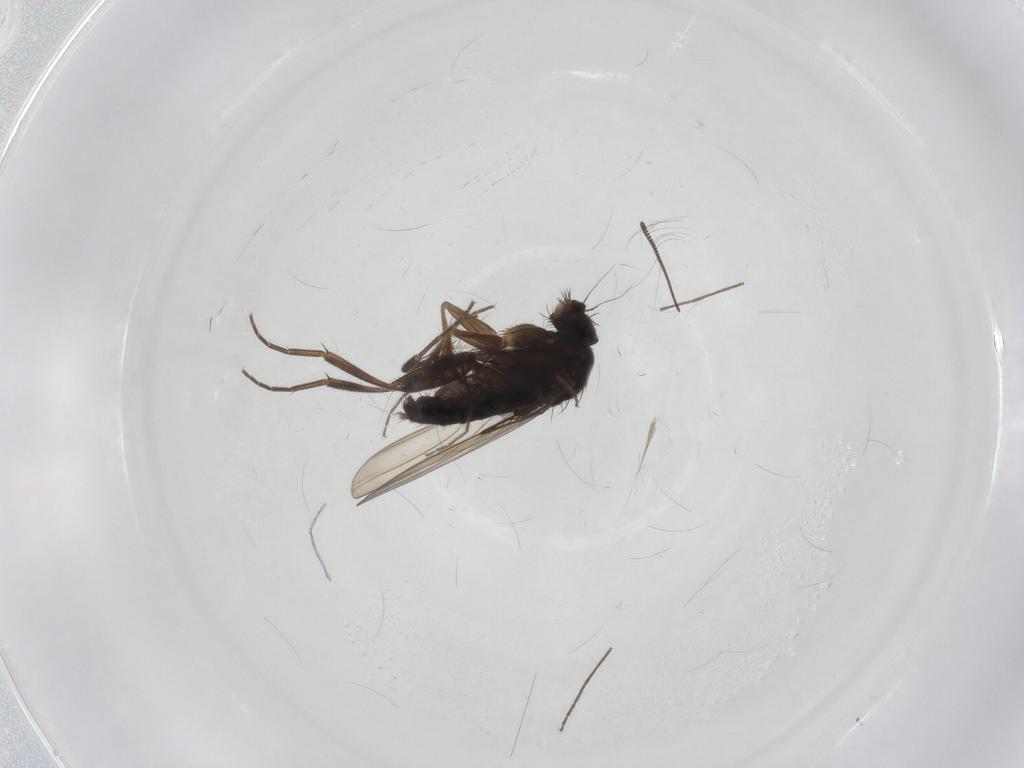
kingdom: Animalia
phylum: Arthropoda
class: Insecta
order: Diptera
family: Phoridae
